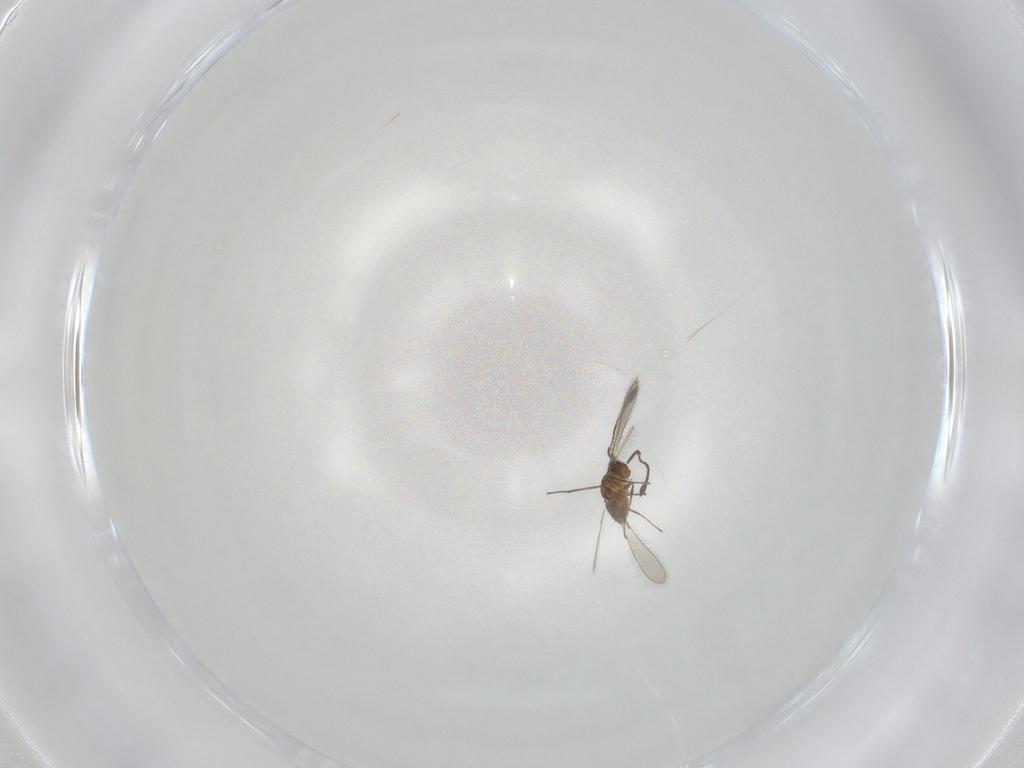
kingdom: Animalia
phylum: Arthropoda
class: Insecta
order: Hymenoptera
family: Mymaridae
